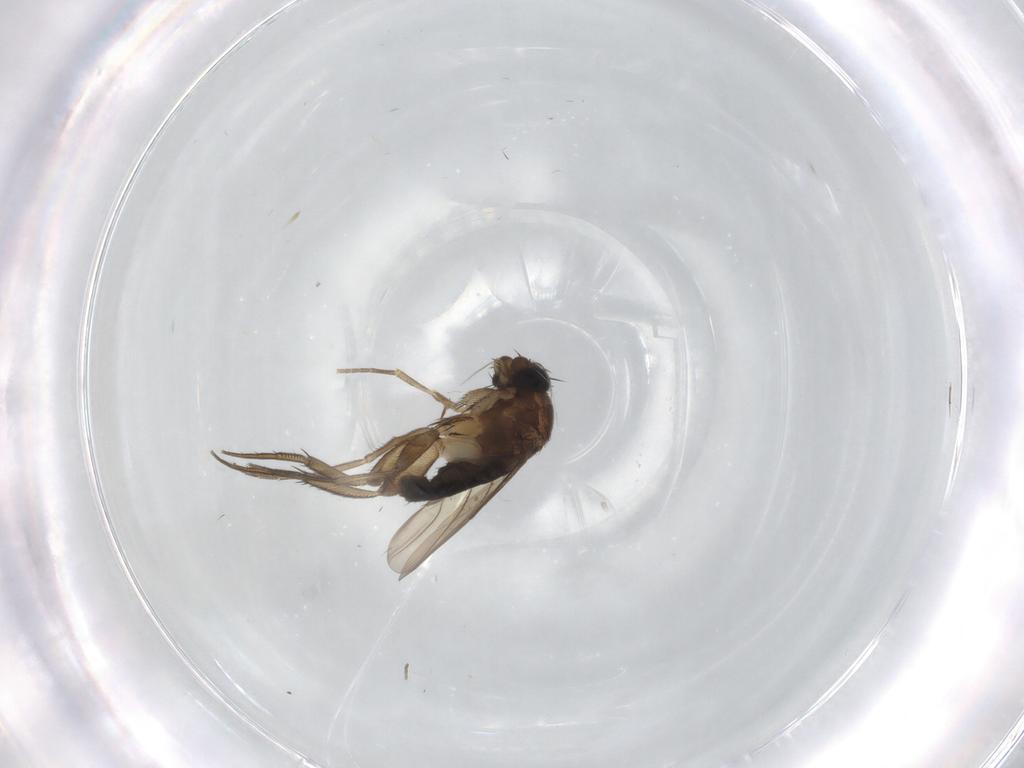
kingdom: Animalia
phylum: Arthropoda
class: Insecta
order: Diptera
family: Phoridae
